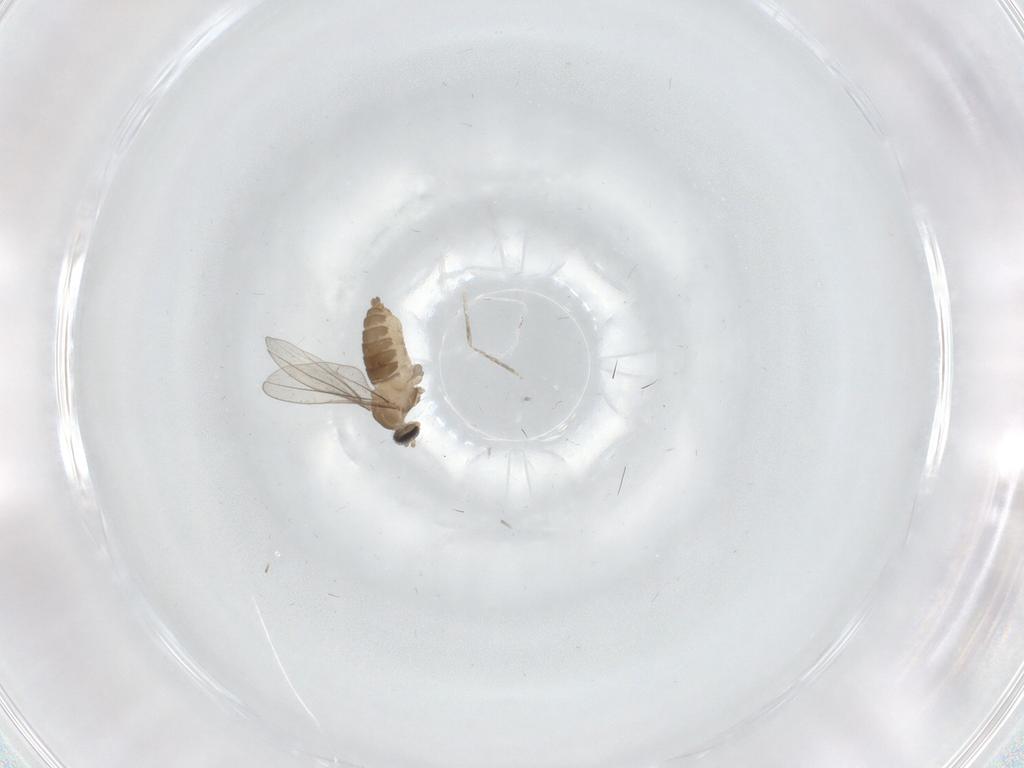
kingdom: Animalia
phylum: Arthropoda
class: Insecta
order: Diptera
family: Cecidomyiidae
